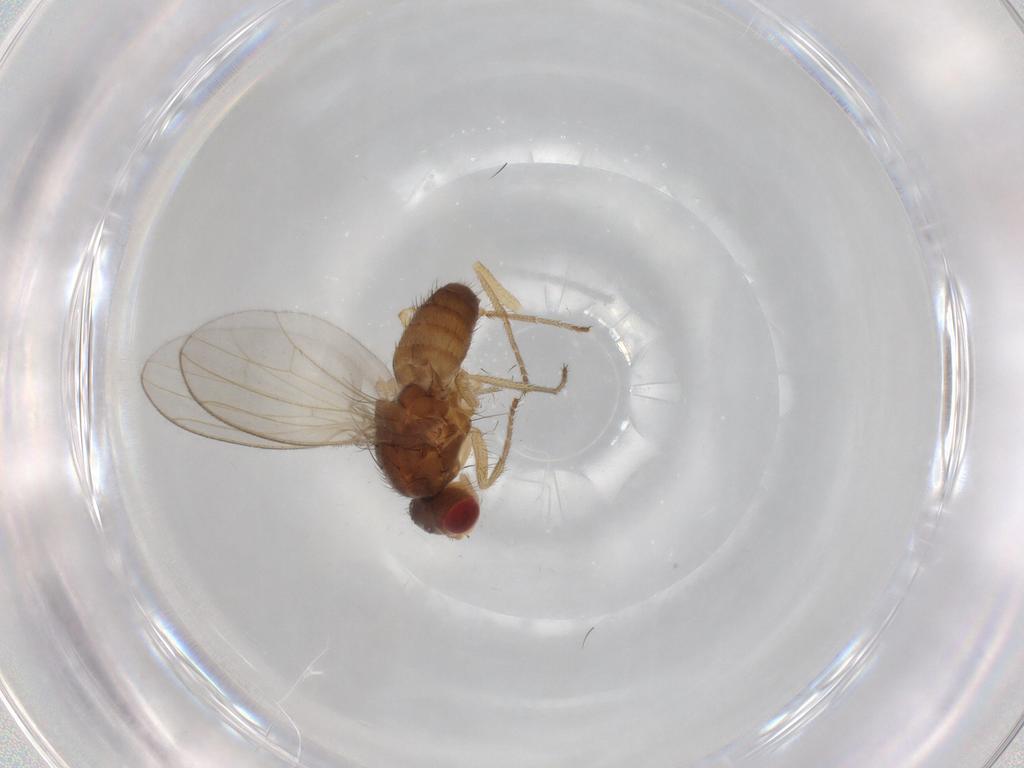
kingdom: Animalia
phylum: Arthropoda
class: Insecta
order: Diptera
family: Drosophilidae
